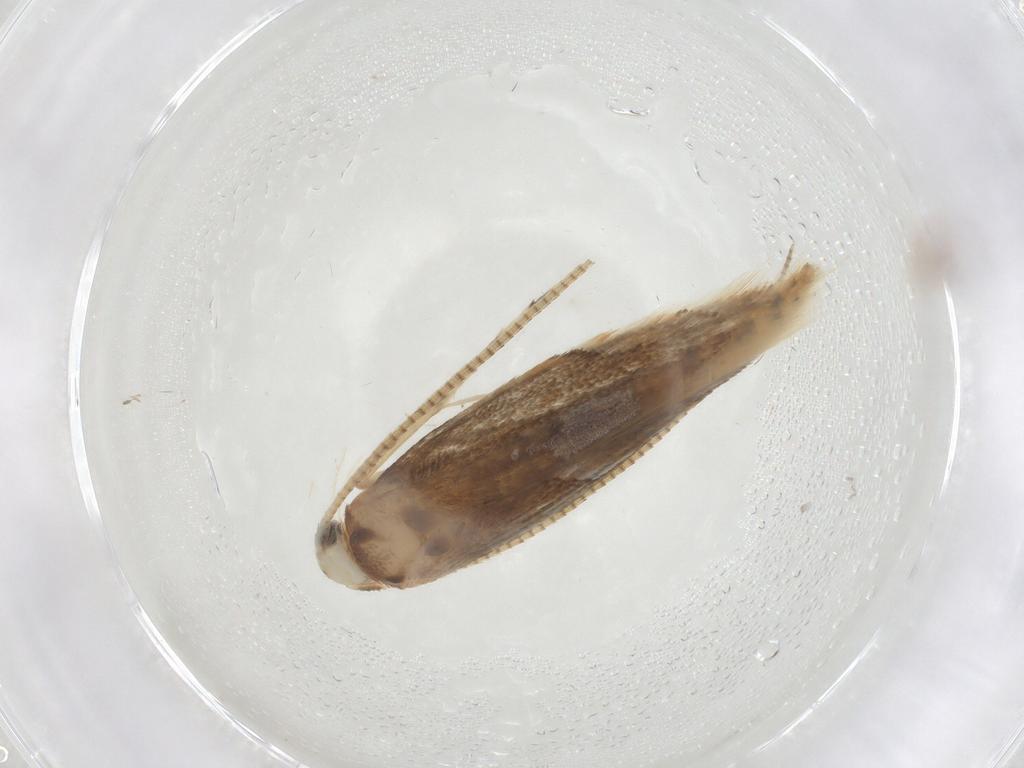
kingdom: Animalia
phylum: Arthropoda
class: Insecta
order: Lepidoptera
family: Gracillariidae
